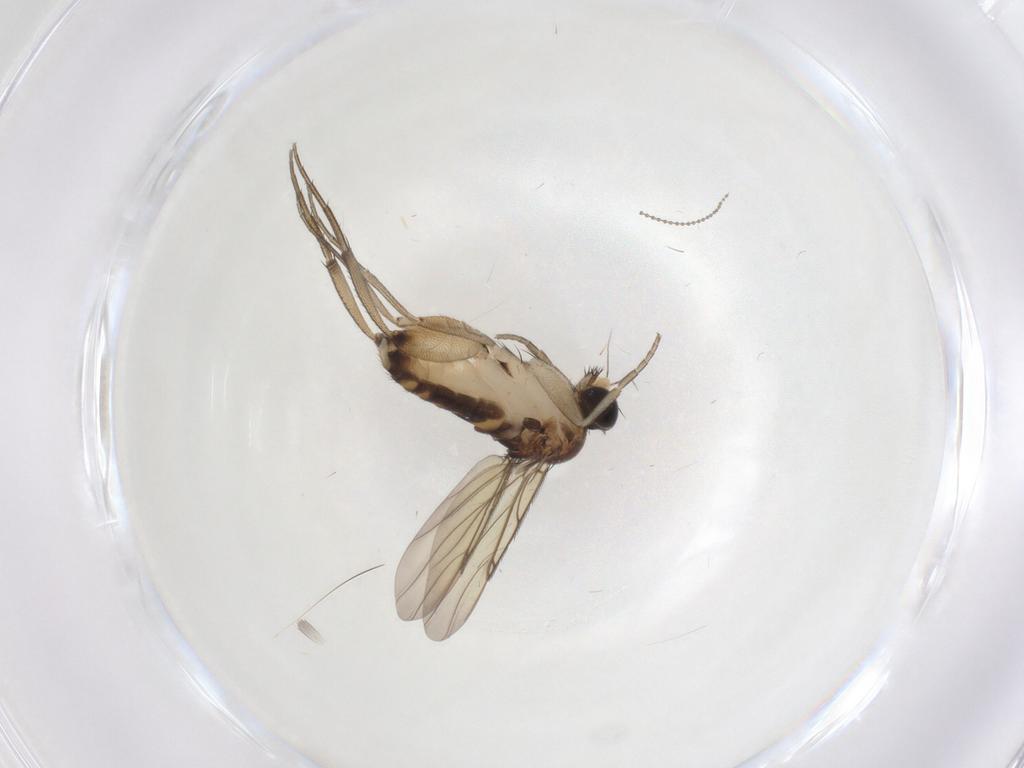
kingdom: Animalia
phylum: Arthropoda
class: Insecta
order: Diptera
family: Phoridae
